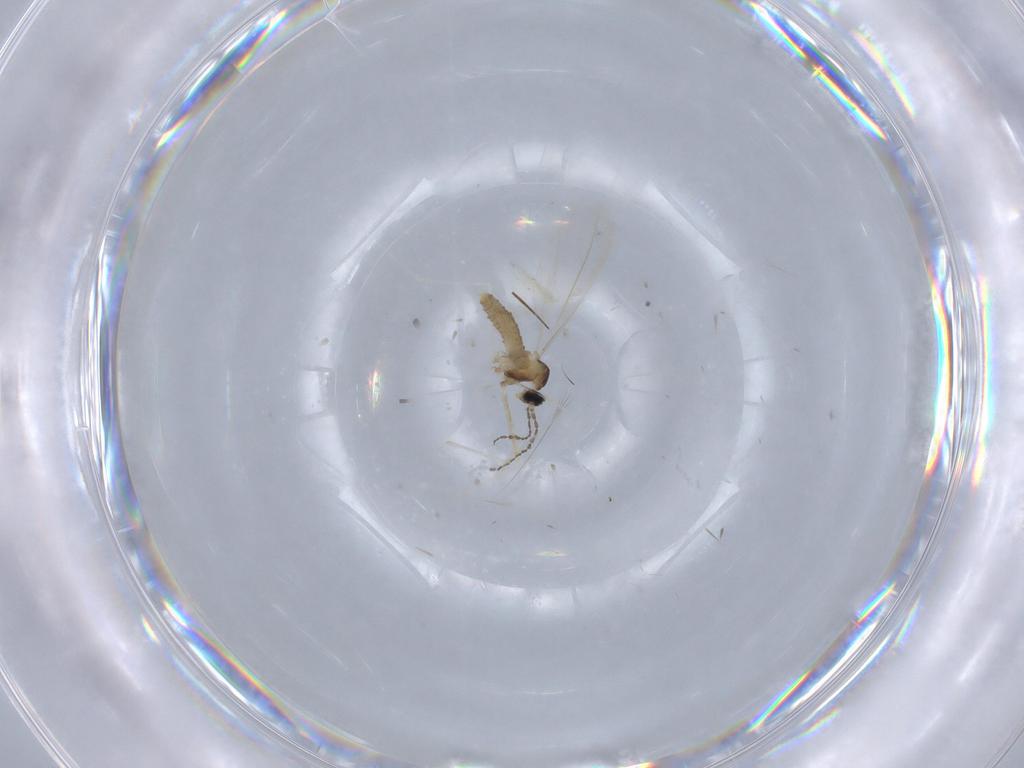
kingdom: Animalia
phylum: Arthropoda
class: Insecta
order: Diptera
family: Cecidomyiidae
